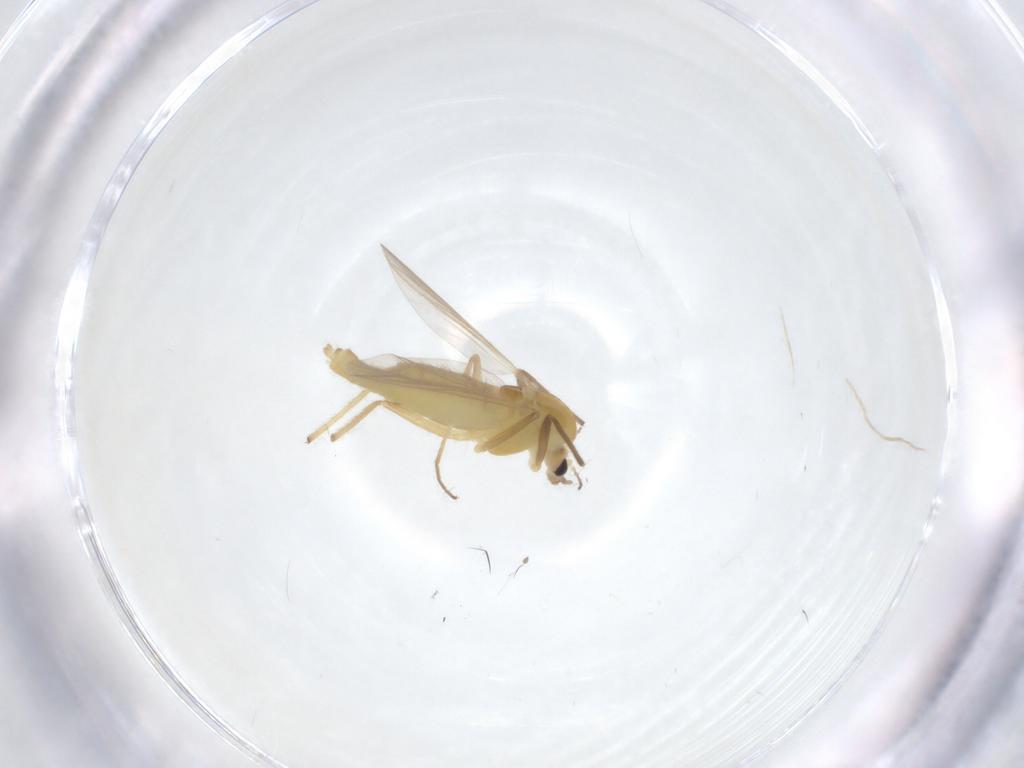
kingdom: Animalia
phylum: Arthropoda
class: Insecta
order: Diptera
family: Chironomidae
